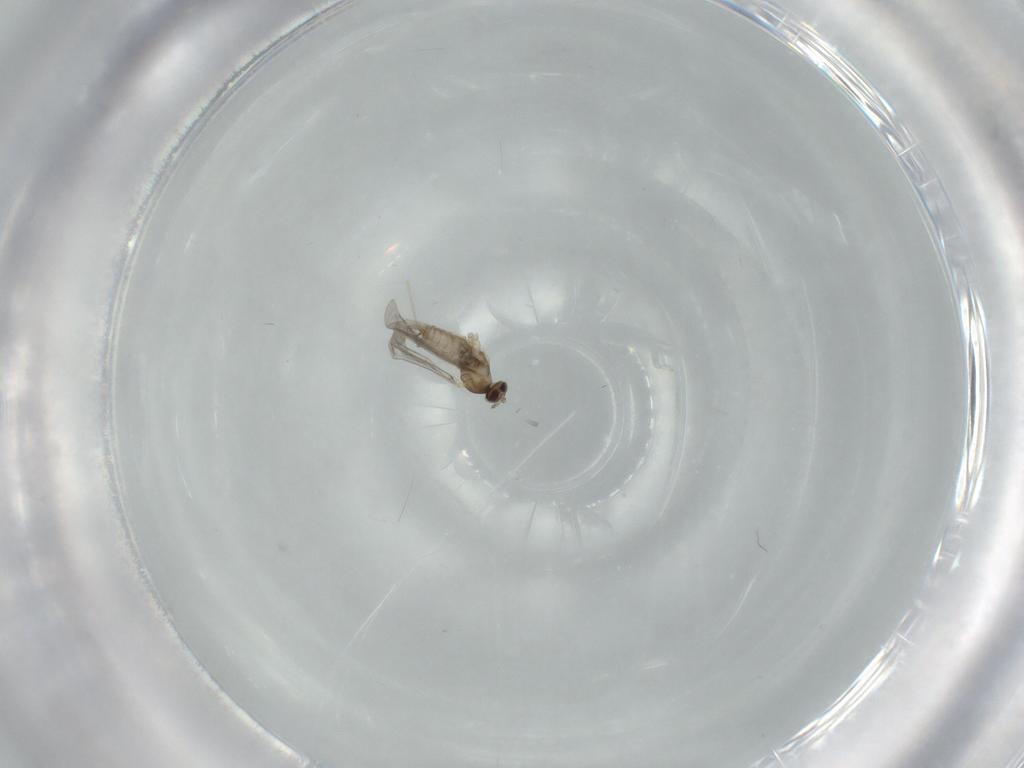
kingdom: Animalia
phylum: Arthropoda
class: Insecta
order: Diptera
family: Cecidomyiidae
